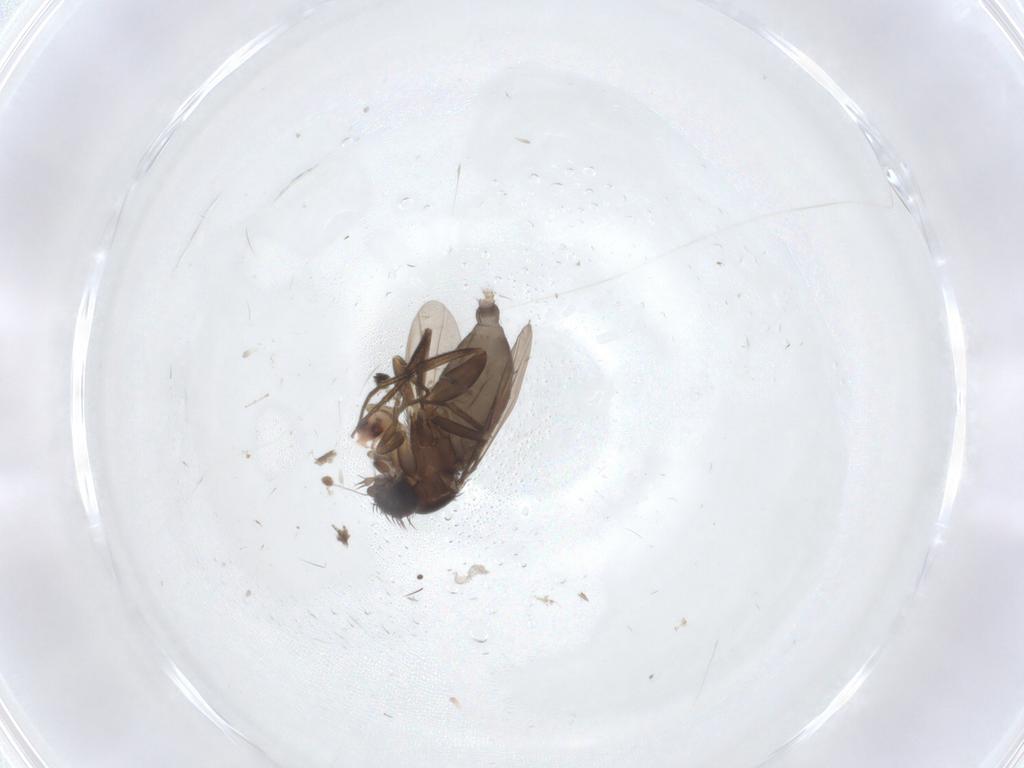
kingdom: Animalia
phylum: Arthropoda
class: Insecta
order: Diptera
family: Phoridae
